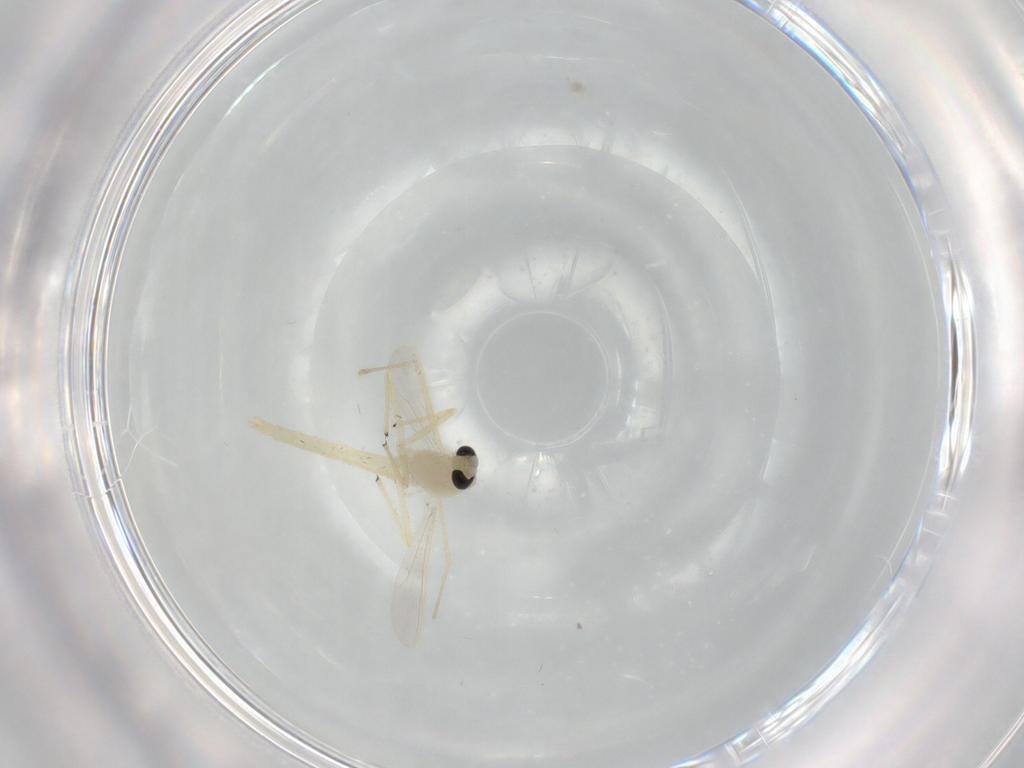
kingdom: Animalia
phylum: Arthropoda
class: Insecta
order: Diptera
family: Chironomidae
